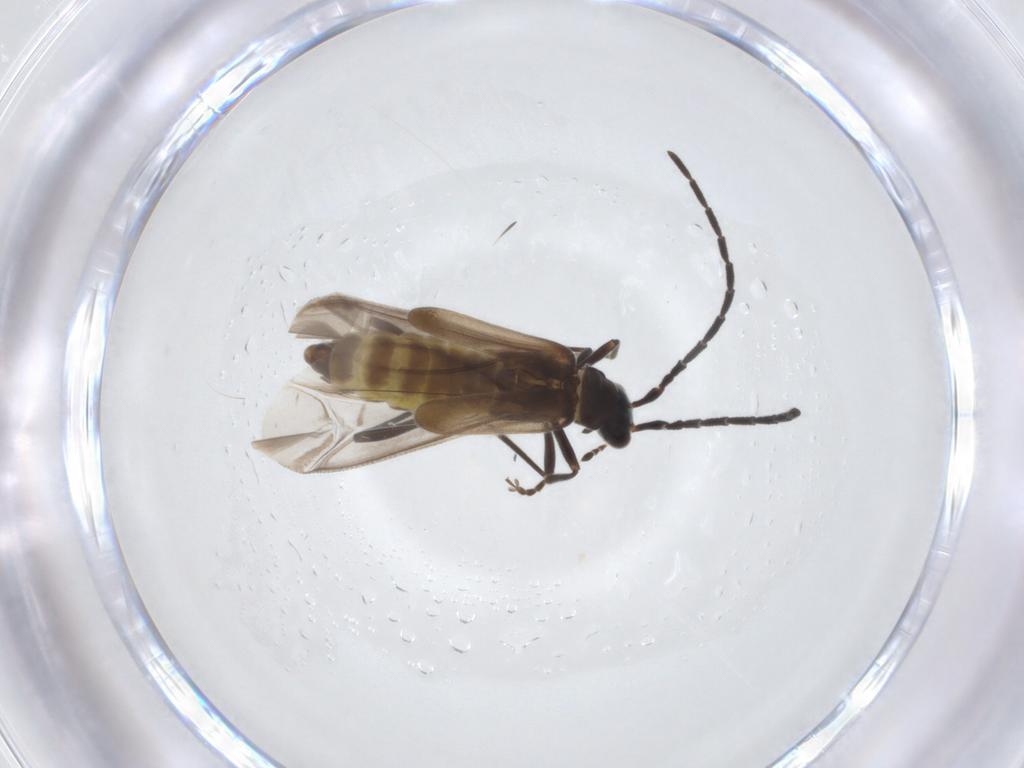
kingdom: Animalia
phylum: Arthropoda
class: Insecta
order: Coleoptera
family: Cantharidae
